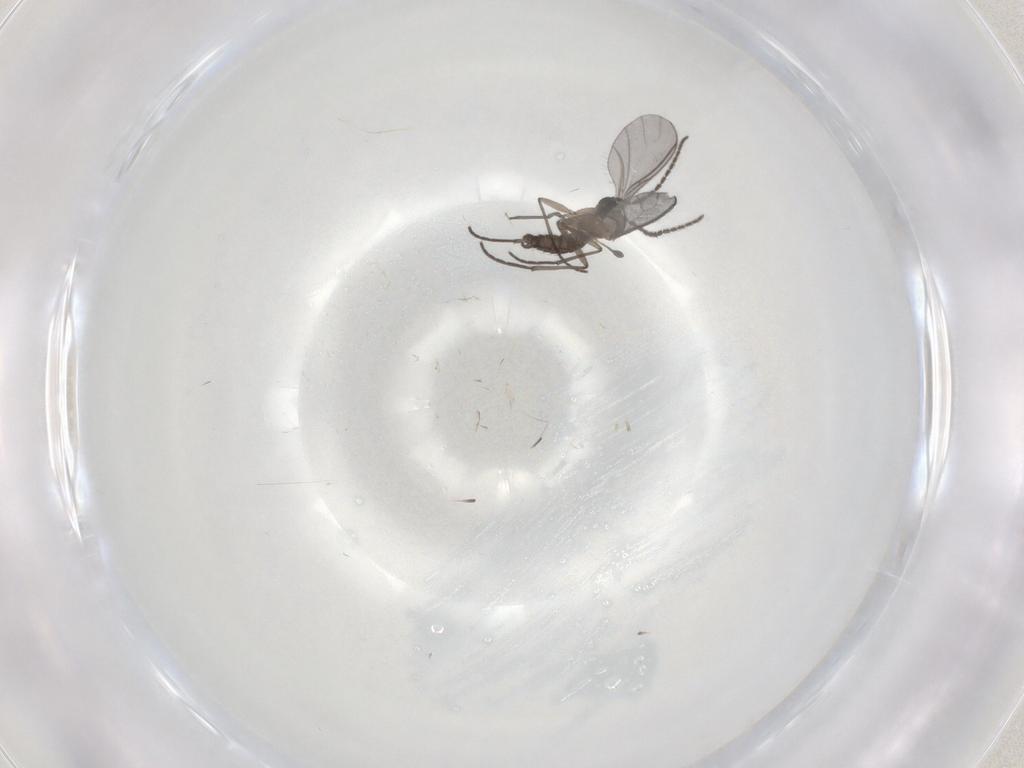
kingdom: Animalia
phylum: Arthropoda
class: Insecta
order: Diptera
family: Sciaridae
